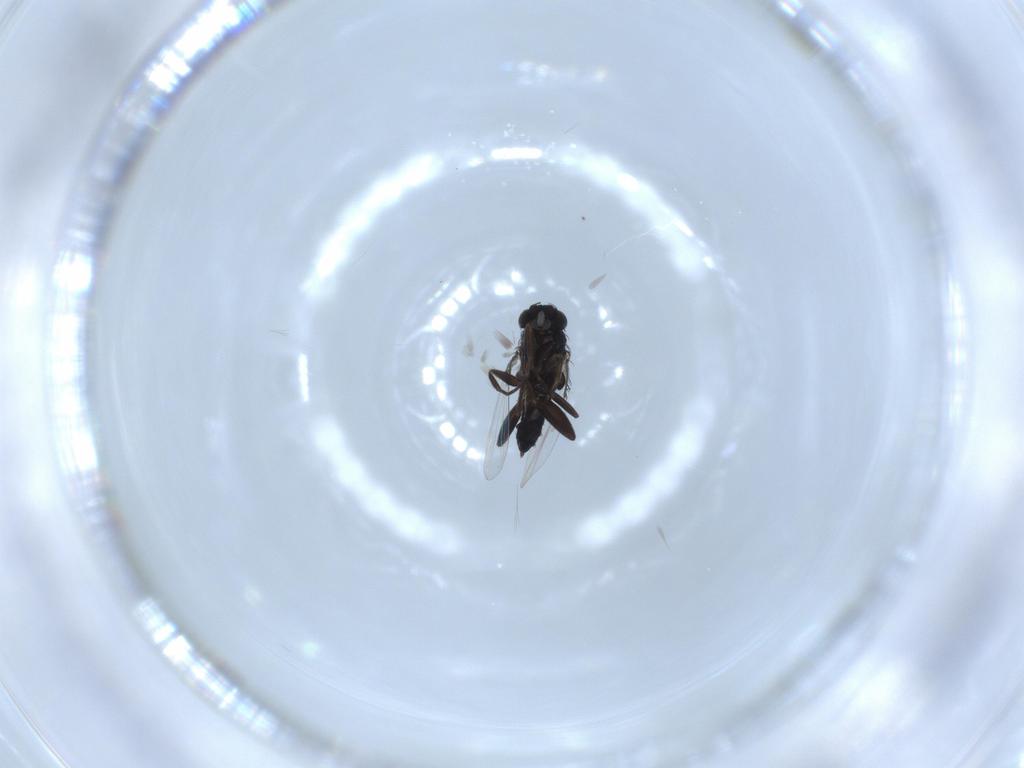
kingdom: Animalia
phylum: Arthropoda
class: Insecta
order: Diptera
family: Phoridae
